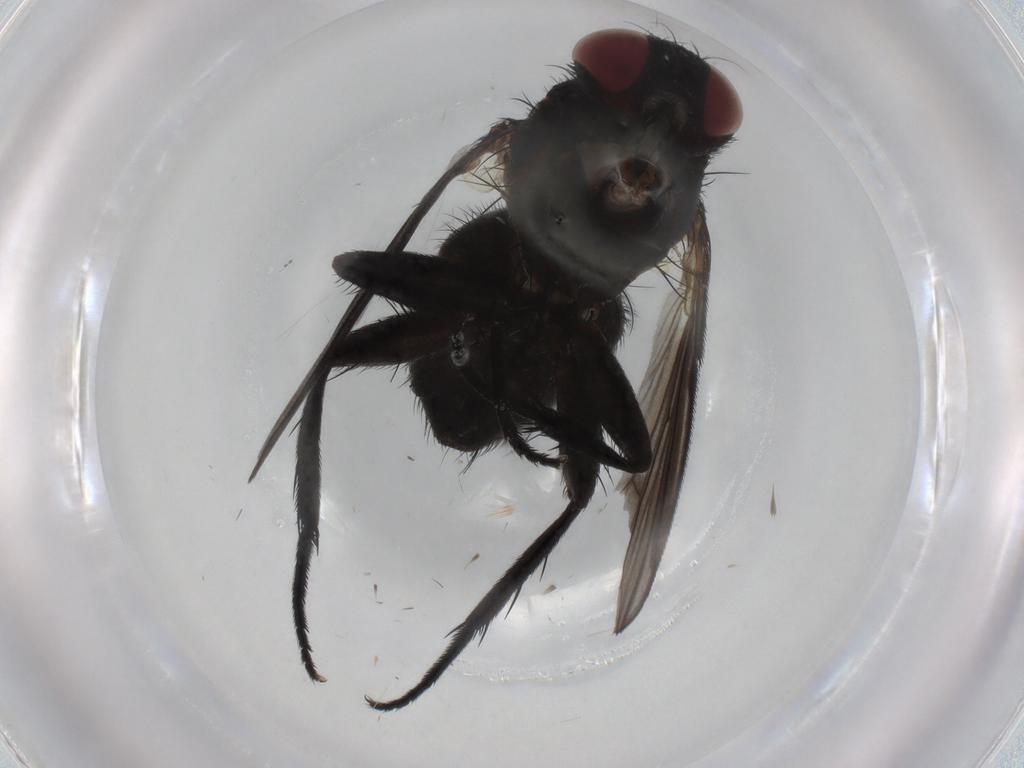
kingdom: Animalia
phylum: Arthropoda
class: Insecta
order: Diptera
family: Calliphoridae
